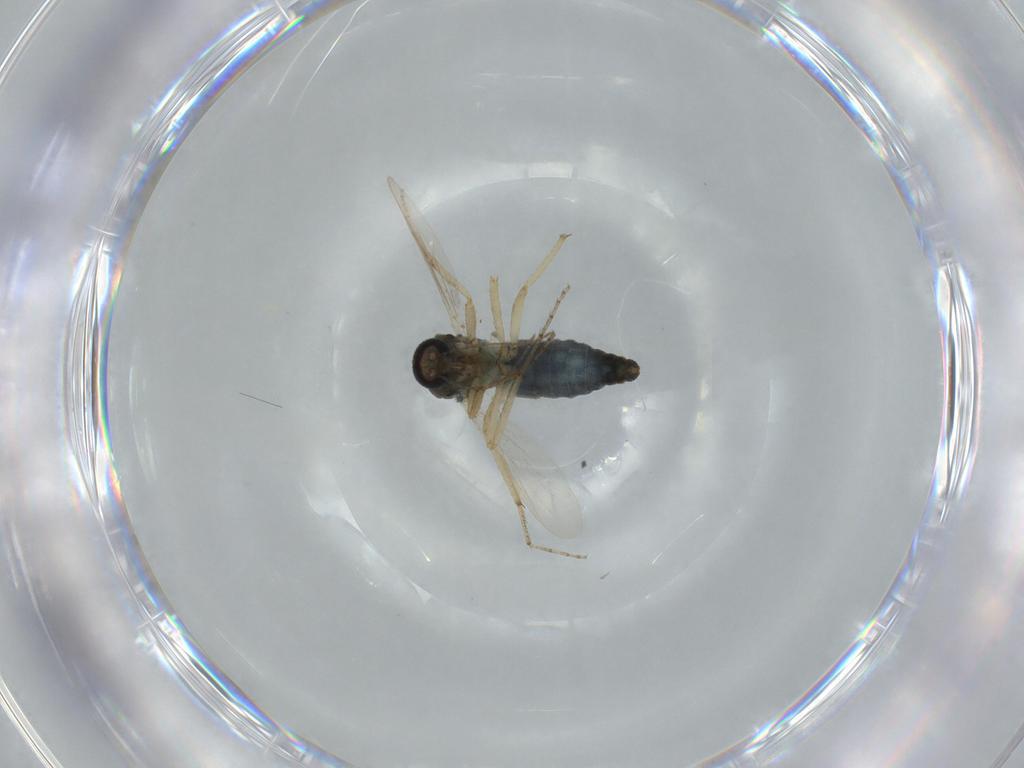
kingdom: Animalia
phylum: Arthropoda
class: Insecta
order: Diptera
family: Ceratopogonidae
